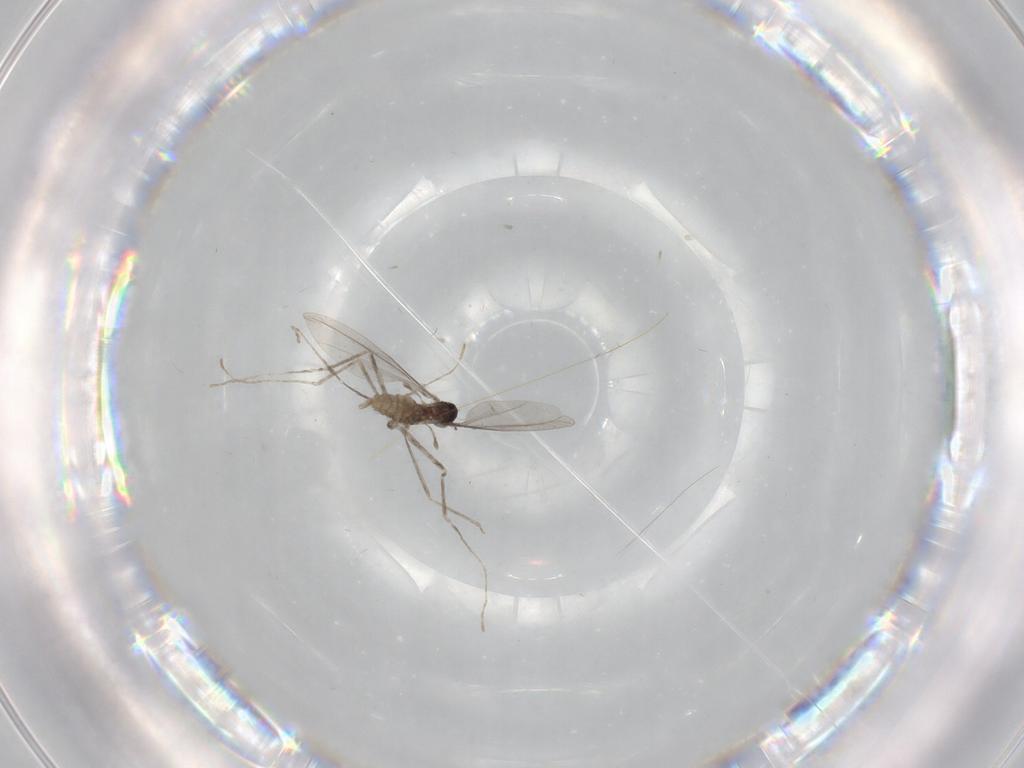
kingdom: Animalia
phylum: Arthropoda
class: Insecta
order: Diptera
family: Cecidomyiidae
